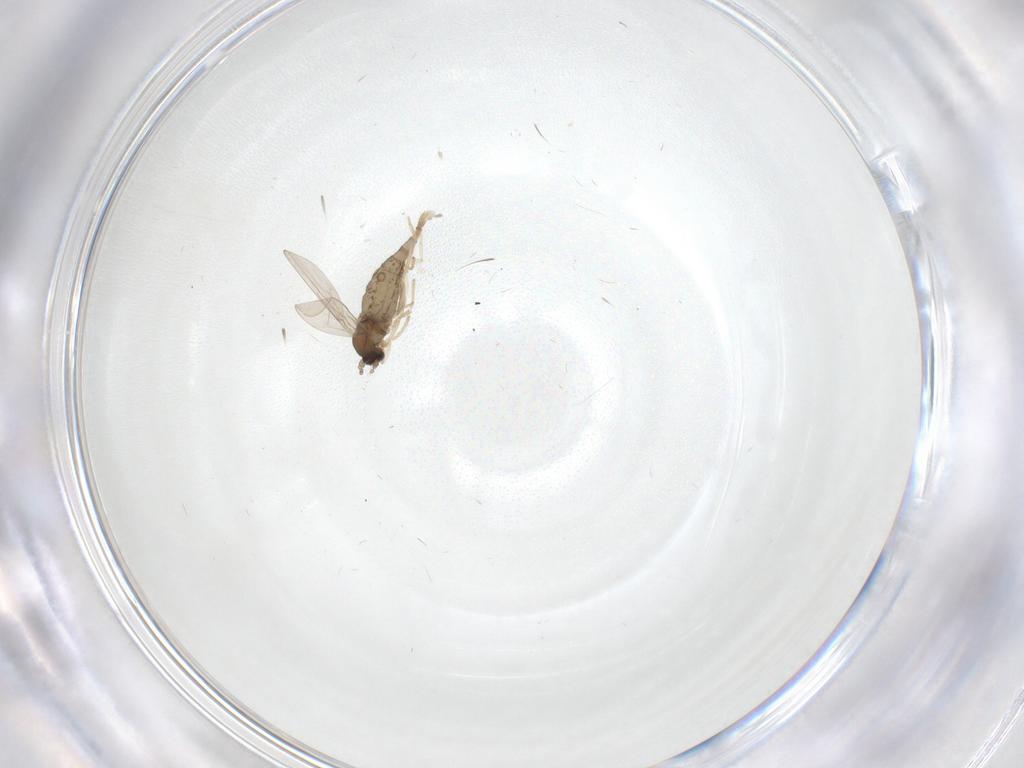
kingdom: Animalia
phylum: Arthropoda
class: Insecta
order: Diptera
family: Cecidomyiidae
